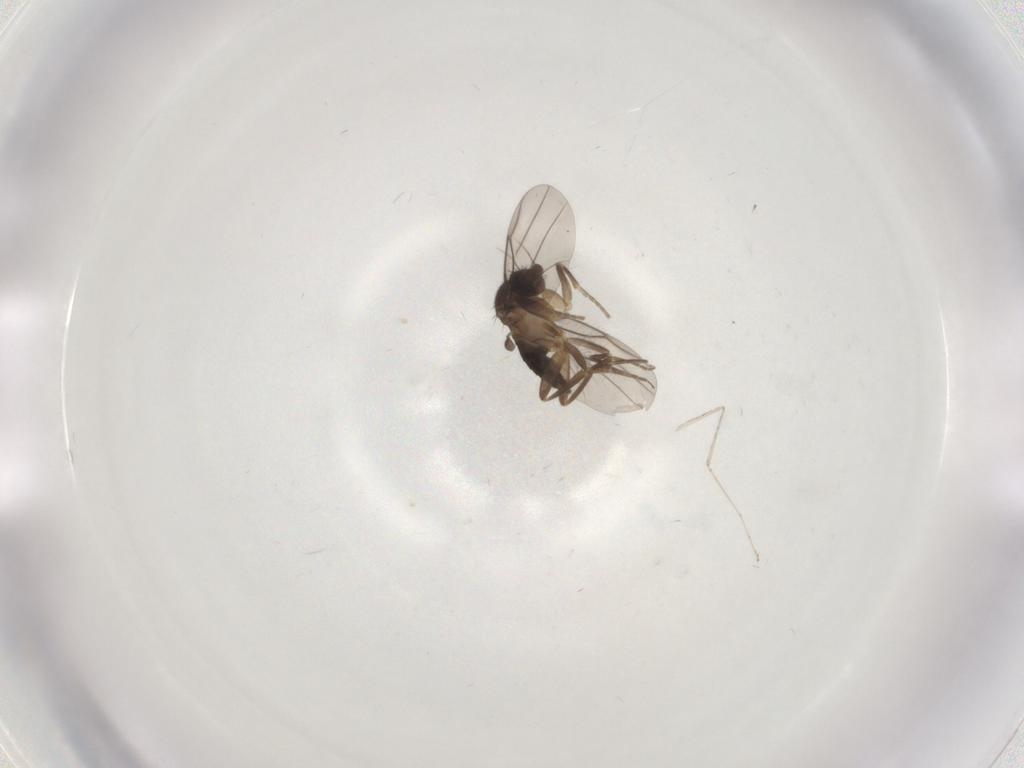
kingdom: Animalia
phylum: Arthropoda
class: Insecta
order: Diptera
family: Cecidomyiidae
